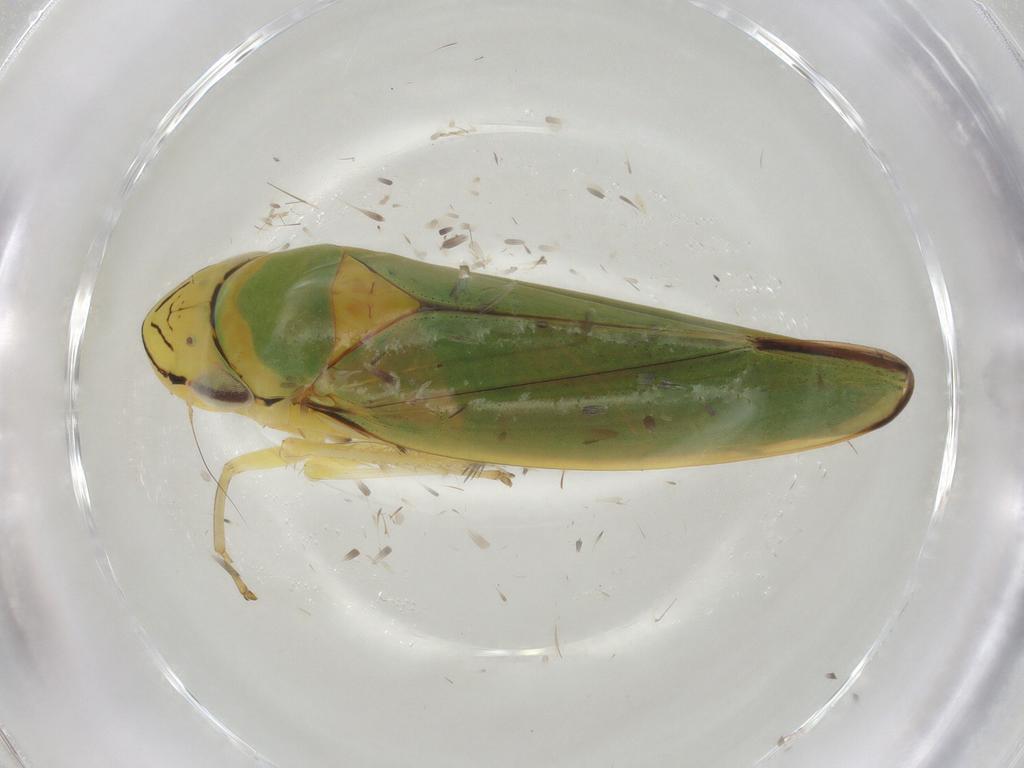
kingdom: Animalia
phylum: Arthropoda
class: Insecta
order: Hemiptera
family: Cicadellidae
